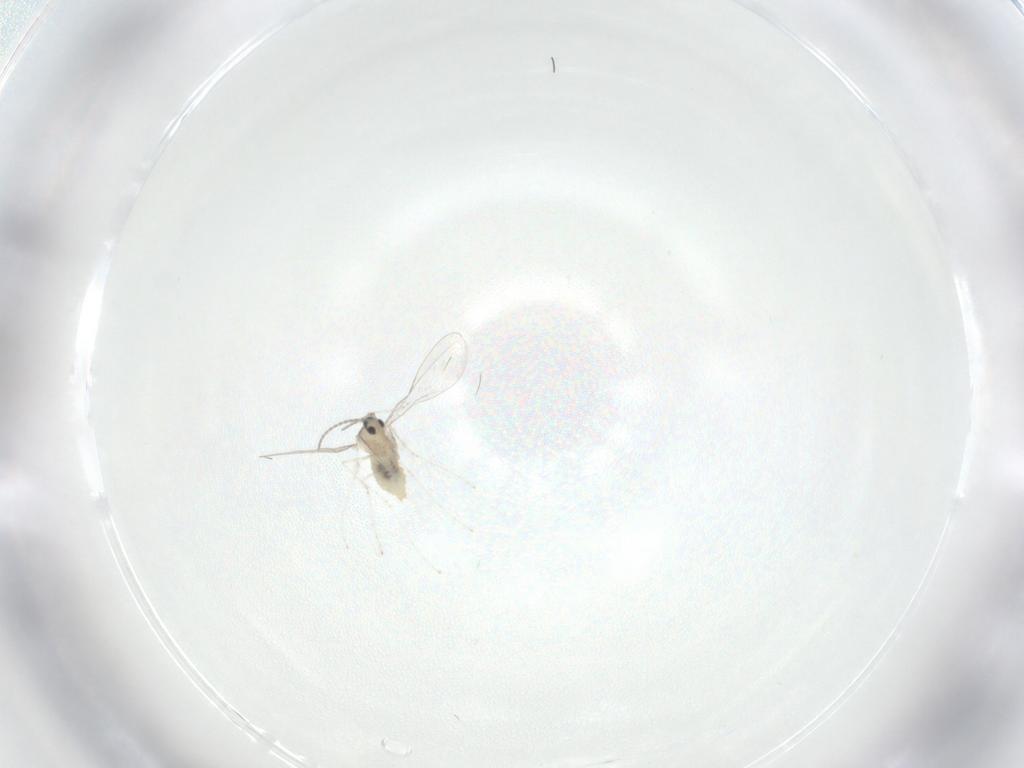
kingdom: Animalia
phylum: Arthropoda
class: Insecta
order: Diptera
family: Cecidomyiidae
